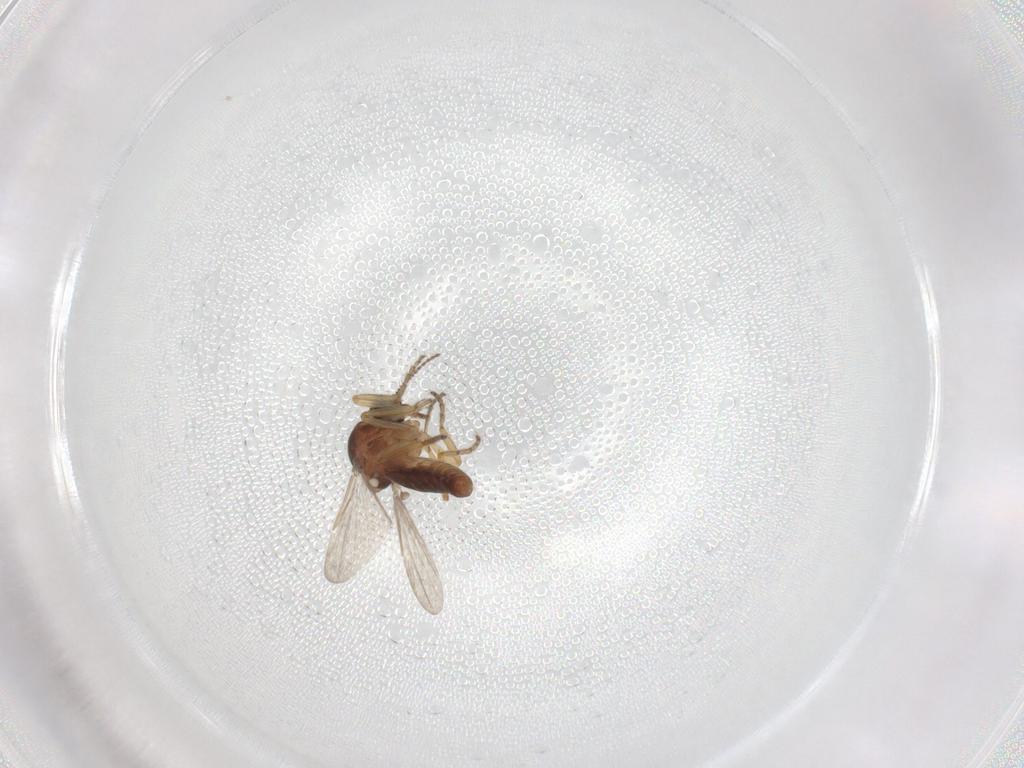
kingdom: Animalia
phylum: Arthropoda
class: Insecta
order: Diptera
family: Ceratopogonidae
